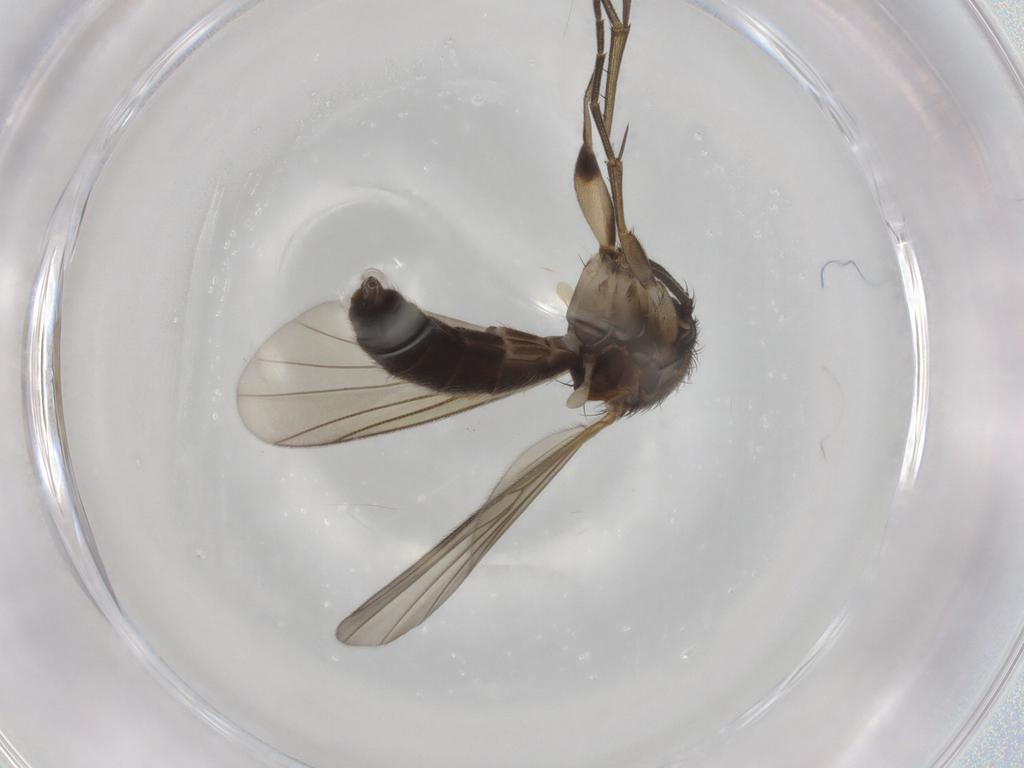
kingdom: Animalia
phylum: Arthropoda
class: Insecta
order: Diptera
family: Mycetophilidae
